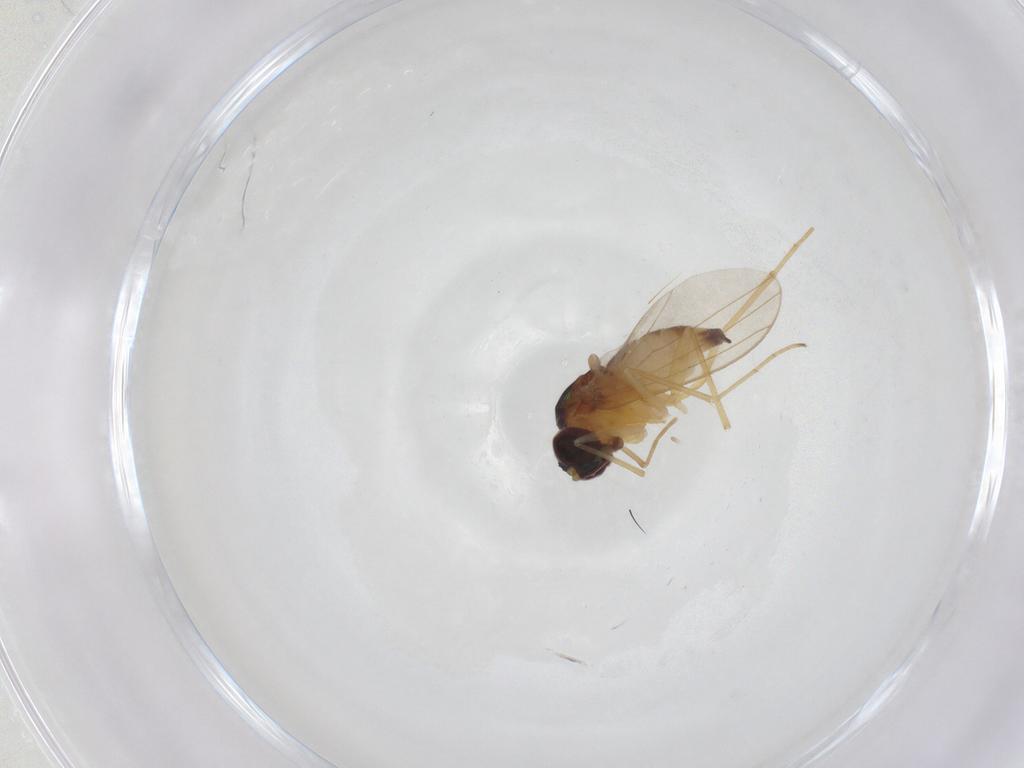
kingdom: Animalia
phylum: Arthropoda
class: Insecta
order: Diptera
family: Dolichopodidae
